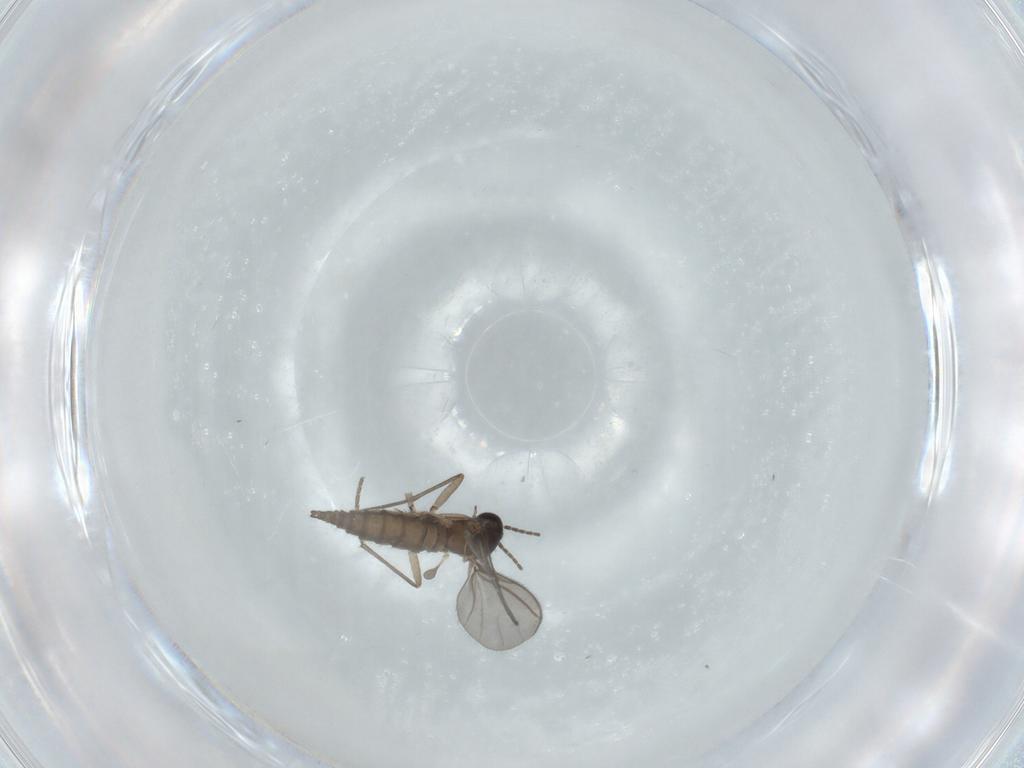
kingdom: Animalia
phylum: Arthropoda
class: Insecta
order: Diptera
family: Sciaridae
